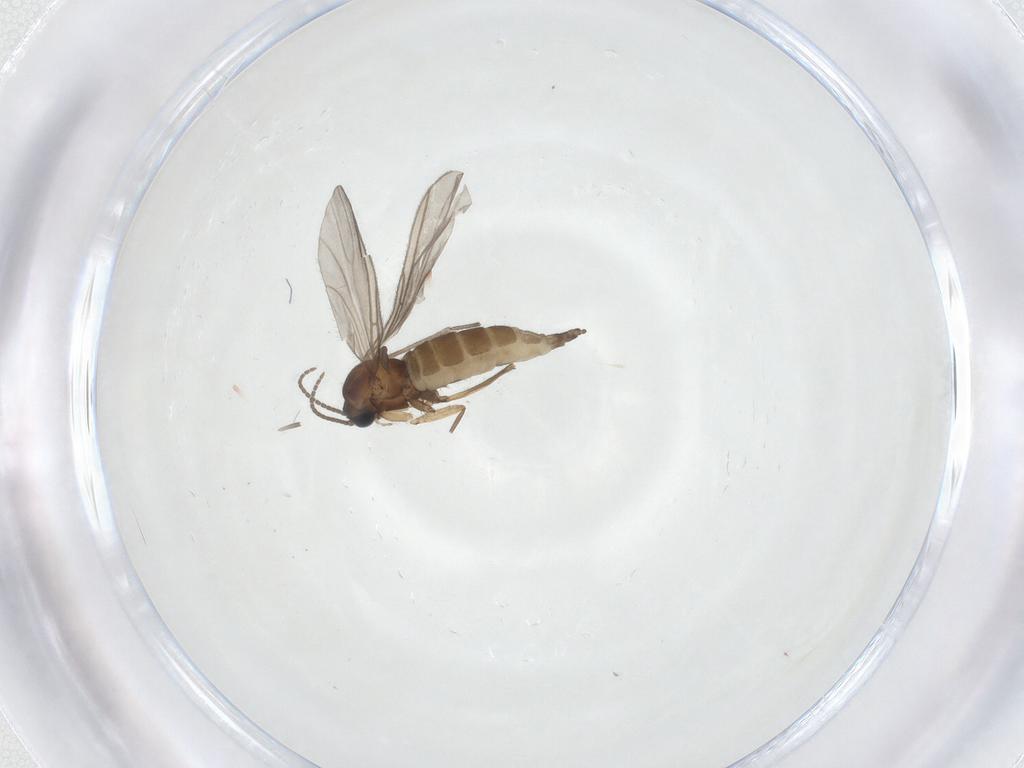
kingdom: Animalia
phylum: Arthropoda
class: Insecta
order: Diptera
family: Sciaridae
